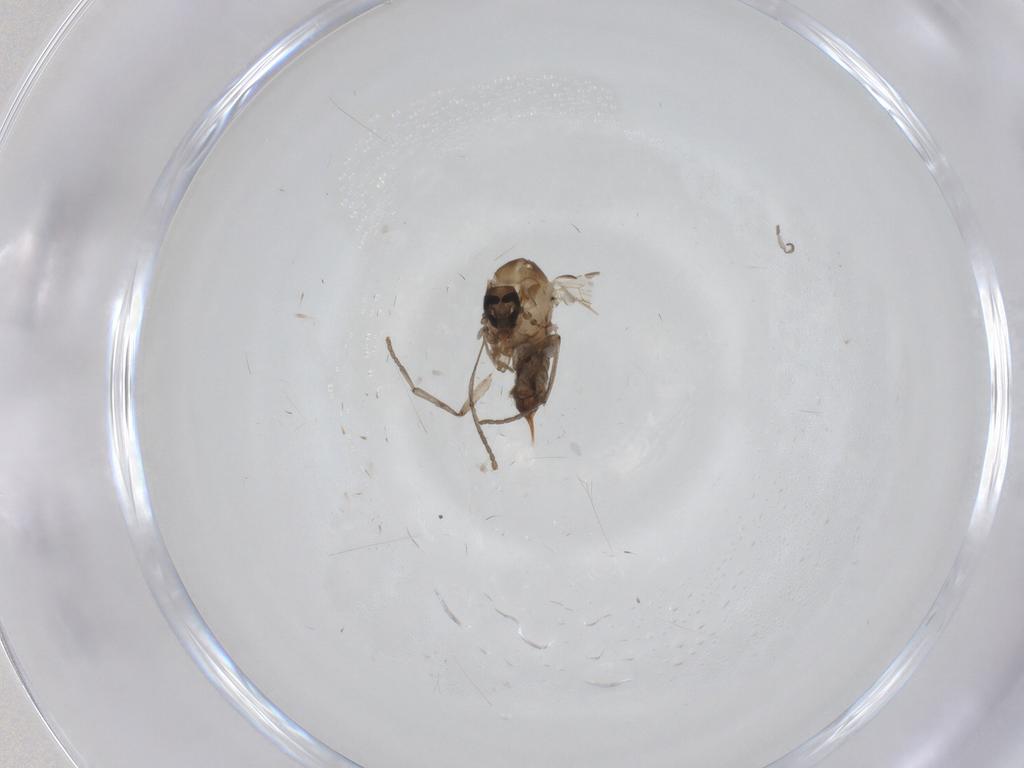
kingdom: Animalia
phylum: Arthropoda
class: Insecta
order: Diptera
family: Psychodidae
